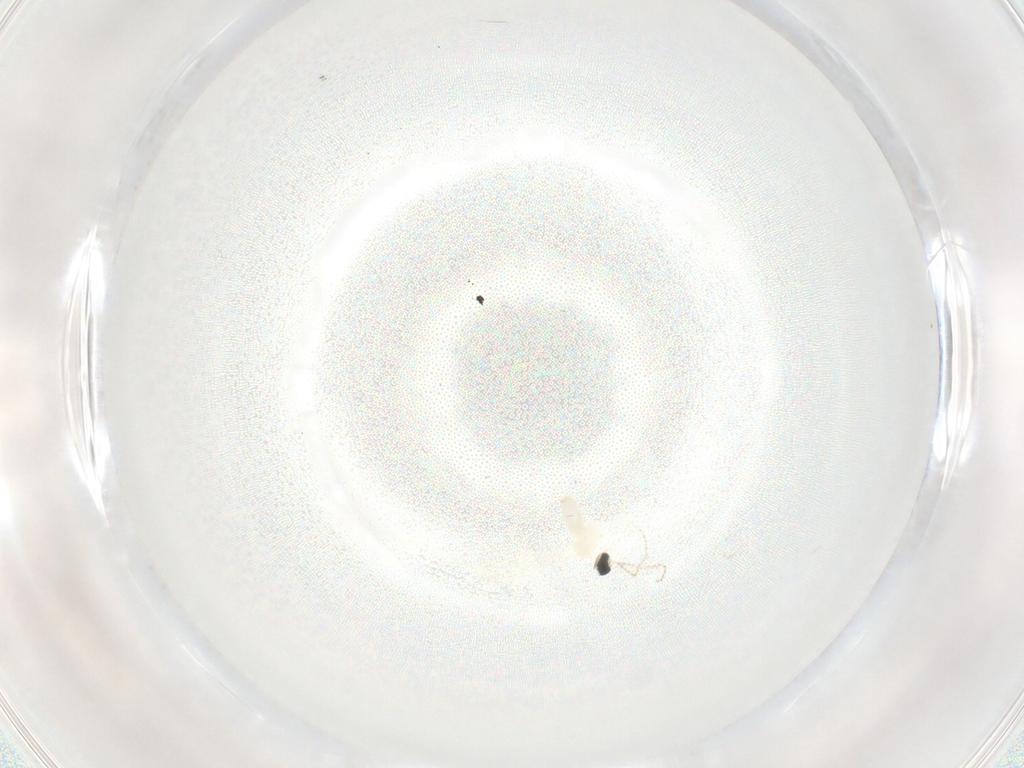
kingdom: Animalia
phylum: Arthropoda
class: Insecta
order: Diptera
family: Cecidomyiidae
